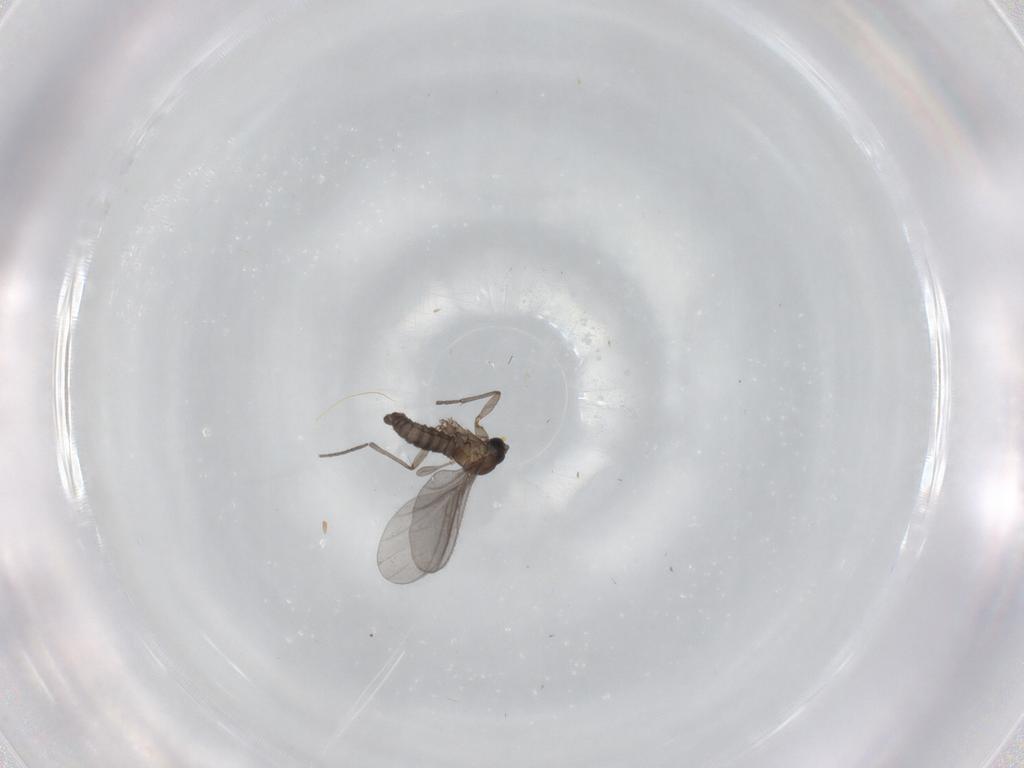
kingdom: Animalia
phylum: Arthropoda
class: Insecta
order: Diptera
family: Sciaridae
